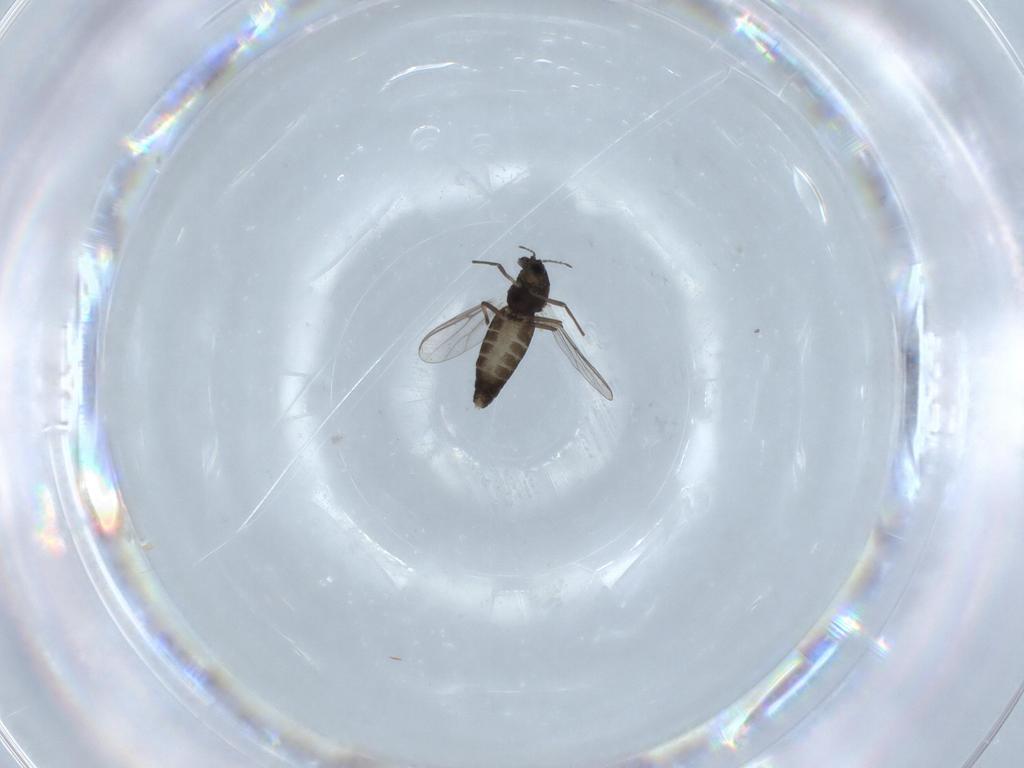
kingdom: Animalia
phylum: Arthropoda
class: Insecta
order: Diptera
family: Chironomidae
